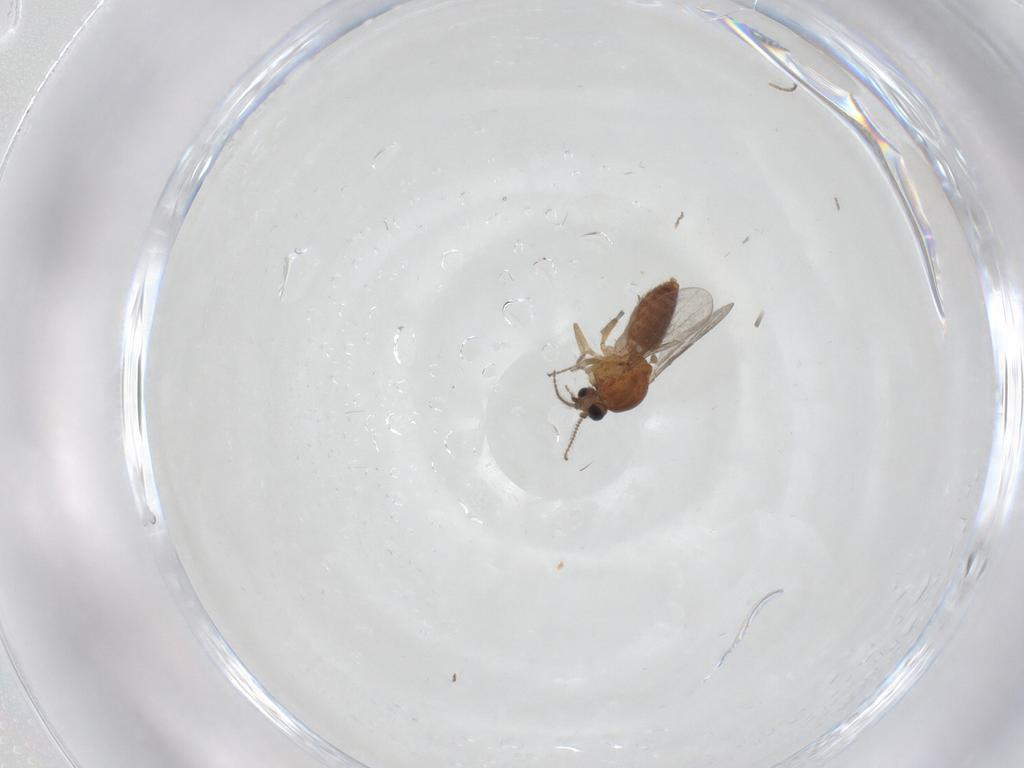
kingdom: Animalia
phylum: Arthropoda
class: Insecta
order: Diptera
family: Ceratopogonidae
